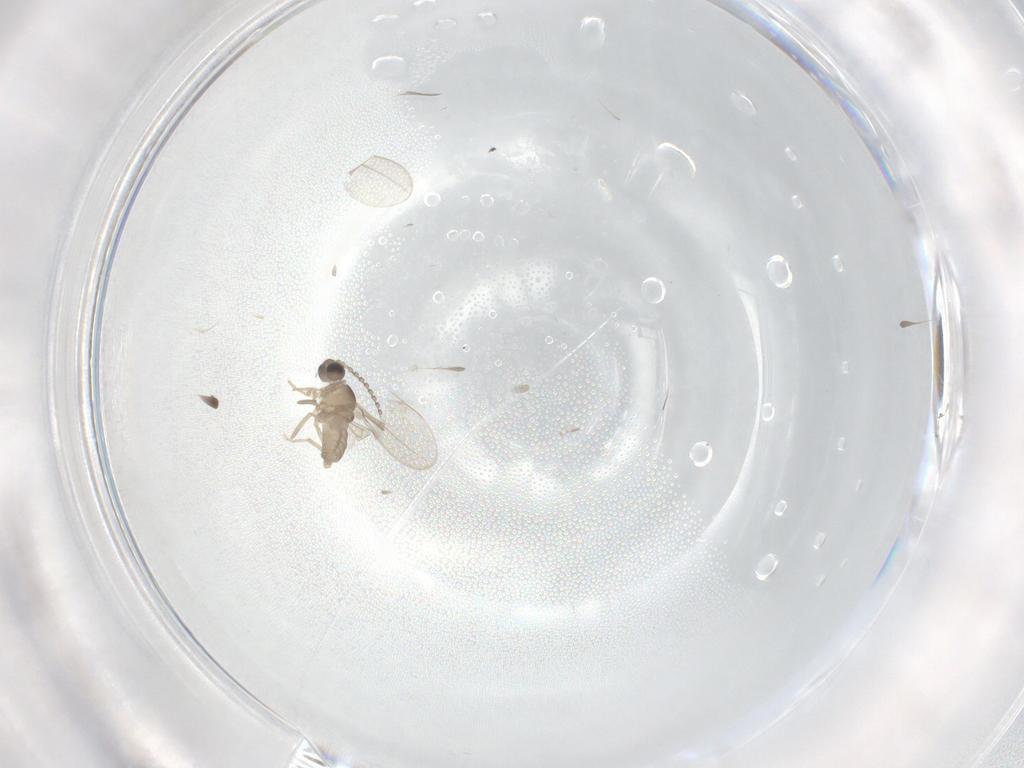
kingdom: Animalia
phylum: Arthropoda
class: Insecta
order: Diptera
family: Cecidomyiidae
